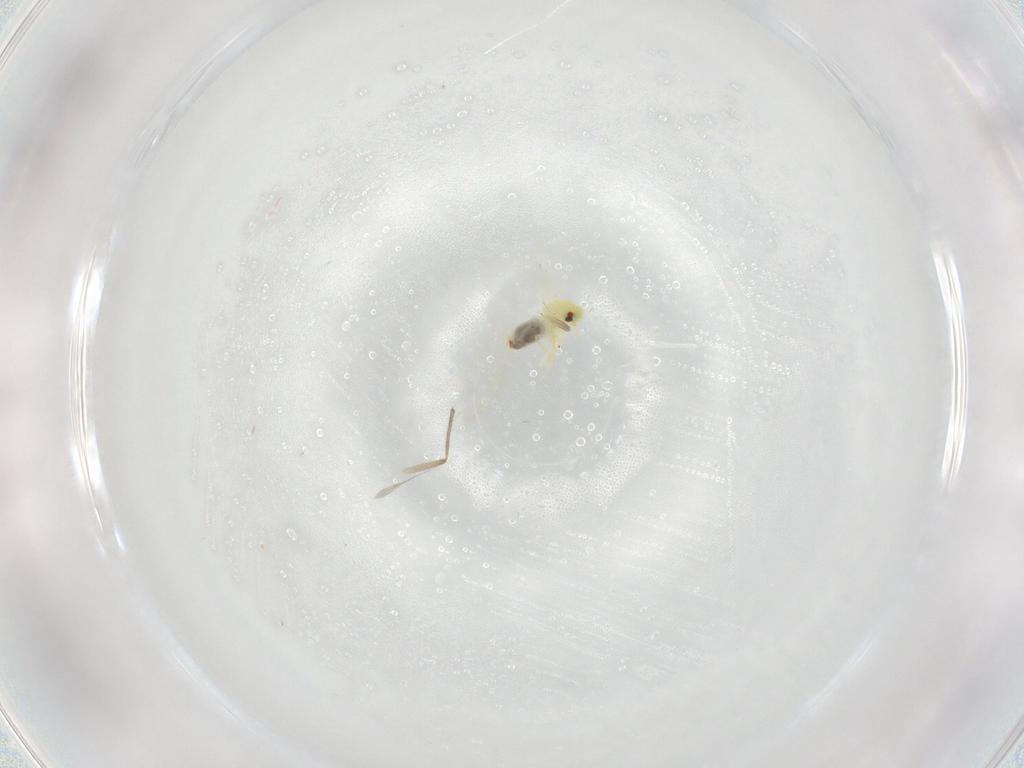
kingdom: Animalia
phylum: Arthropoda
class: Insecta
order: Hemiptera
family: Aleyrodidae
